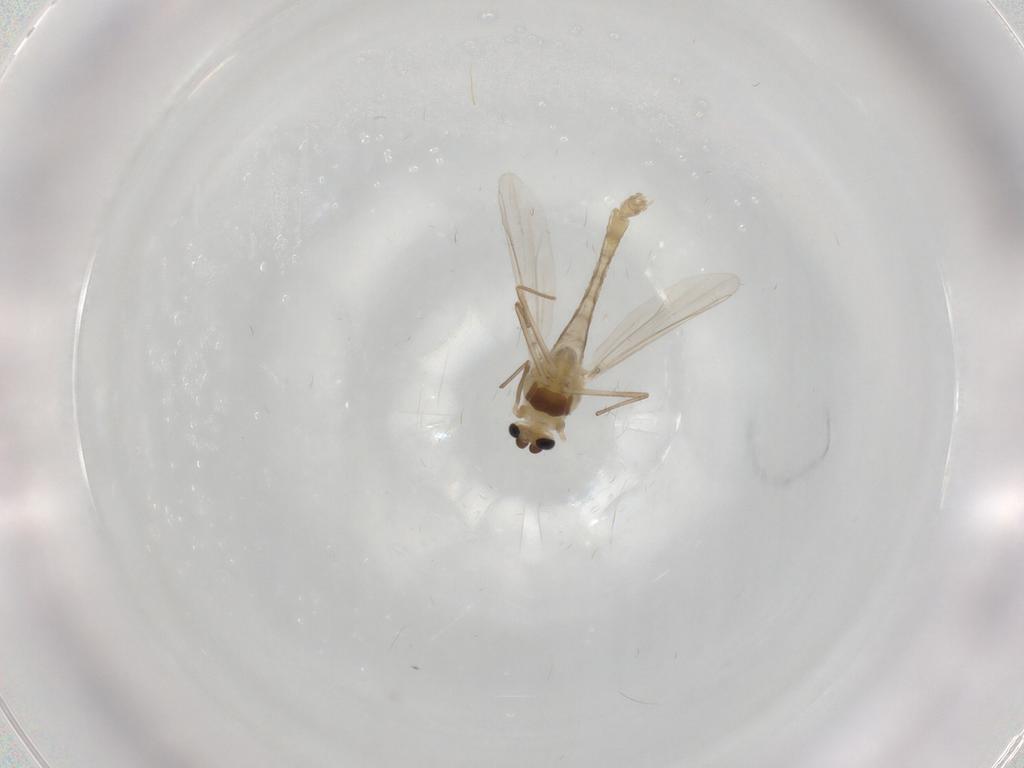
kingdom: Animalia
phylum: Arthropoda
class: Insecta
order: Diptera
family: Chironomidae
